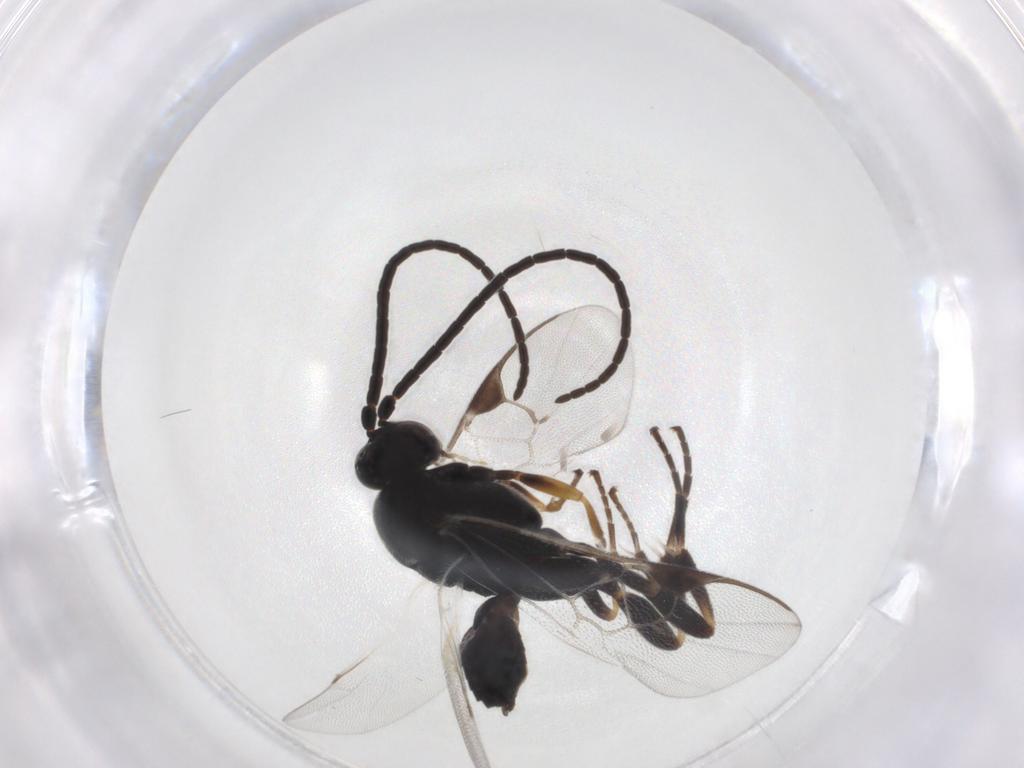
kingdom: Animalia
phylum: Arthropoda
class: Insecta
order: Hymenoptera
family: Braconidae
